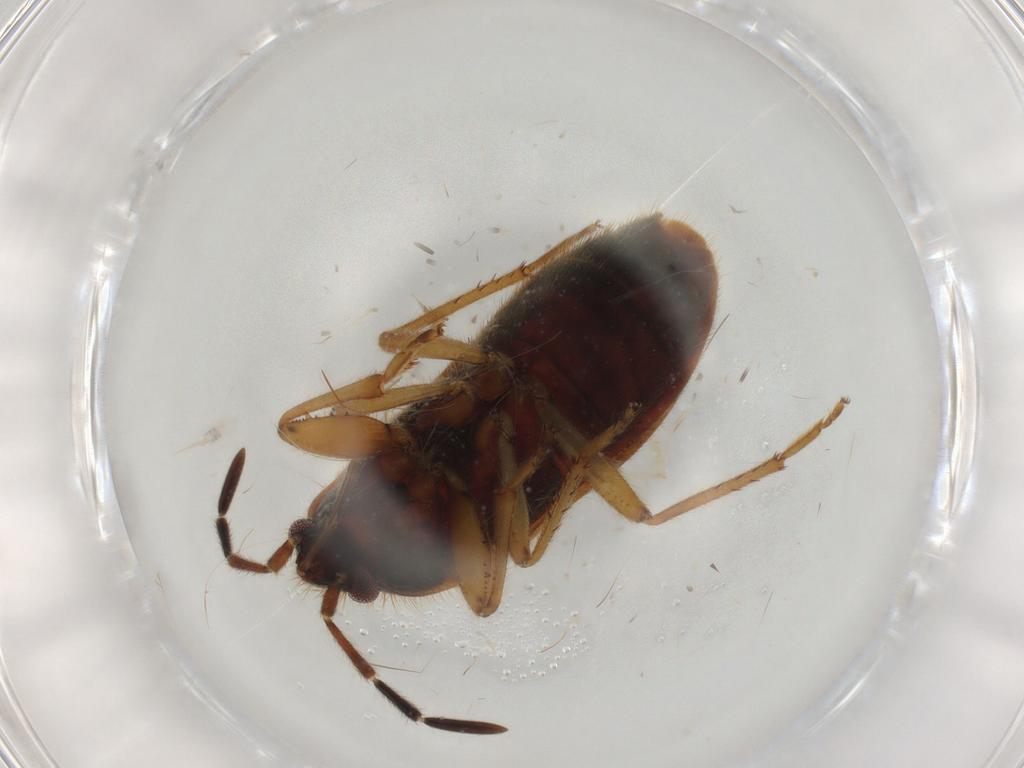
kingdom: Animalia
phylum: Arthropoda
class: Insecta
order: Hemiptera
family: Rhyparochromidae
